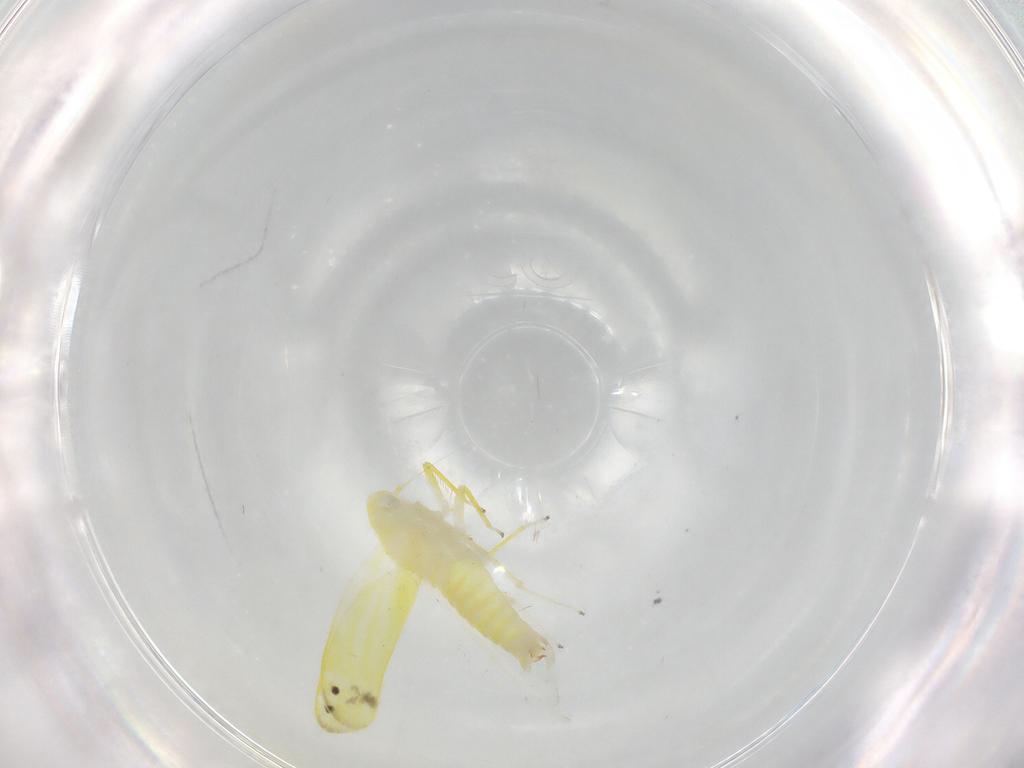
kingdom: Animalia
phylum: Arthropoda
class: Insecta
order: Hemiptera
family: Cicadellidae
